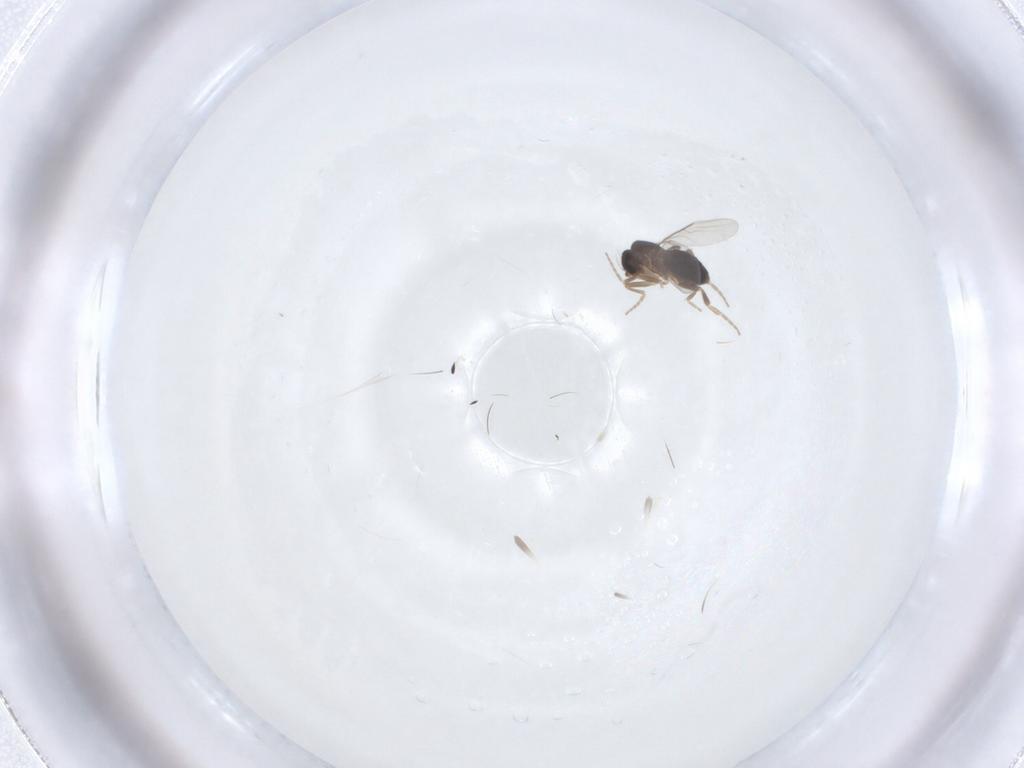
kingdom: Animalia
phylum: Arthropoda
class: Insecta
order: Diptera
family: Phoridae
